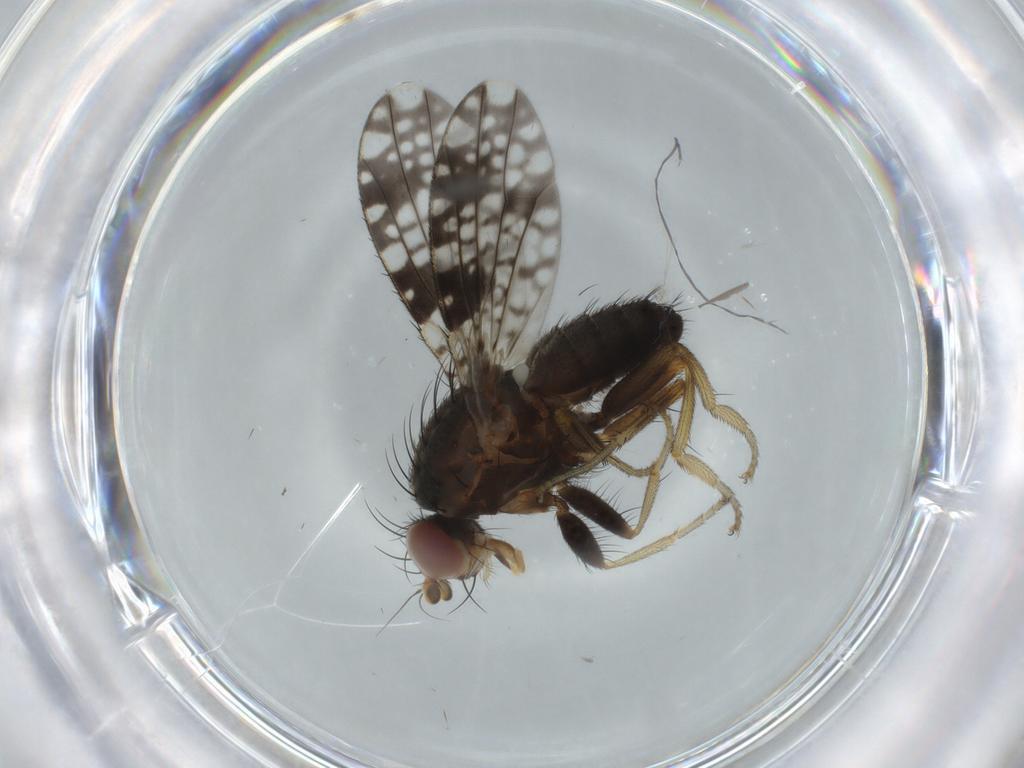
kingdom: Animalia
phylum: Arthropoda
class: Insecta
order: Diptera
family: Tephritidae
